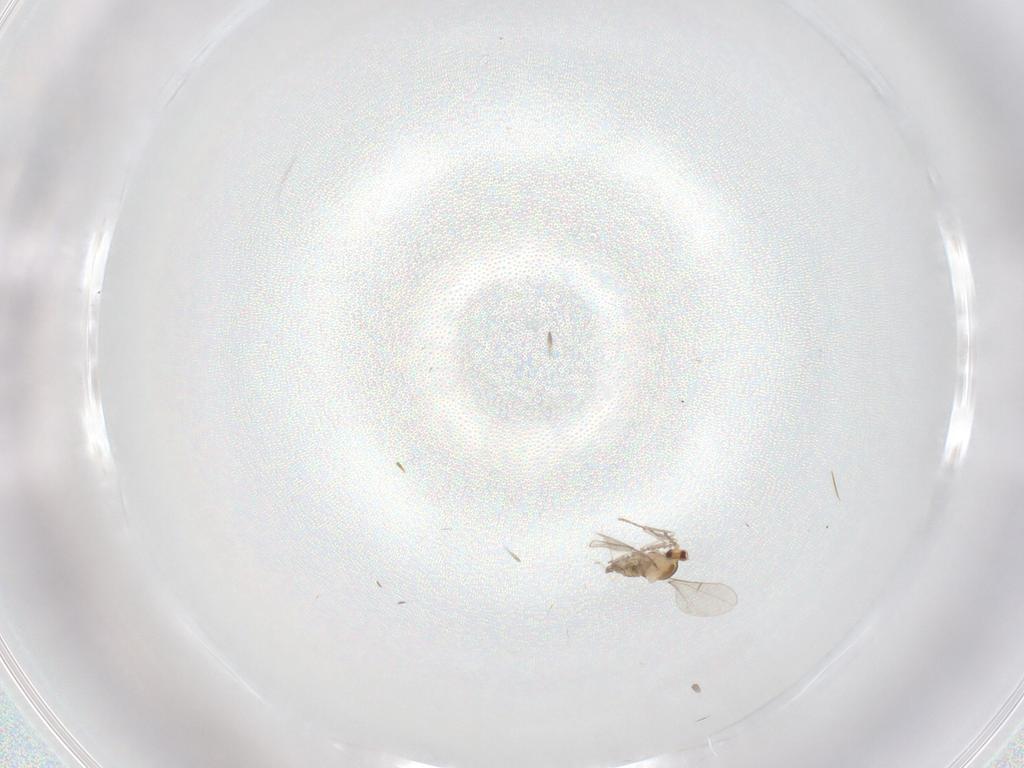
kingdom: Animalia
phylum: Arthropoda
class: Insecta
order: Diptera
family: Cecidomyiidae
